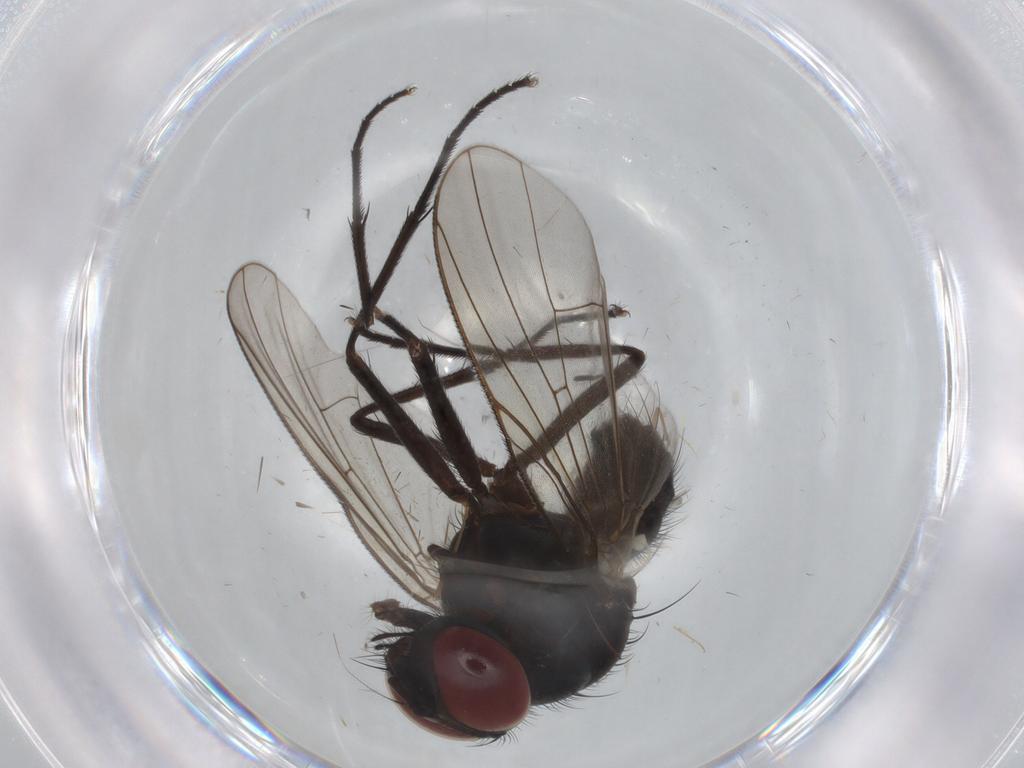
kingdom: Animalia
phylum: Arthropoda
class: Insecta
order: Diptera
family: Muscidae
